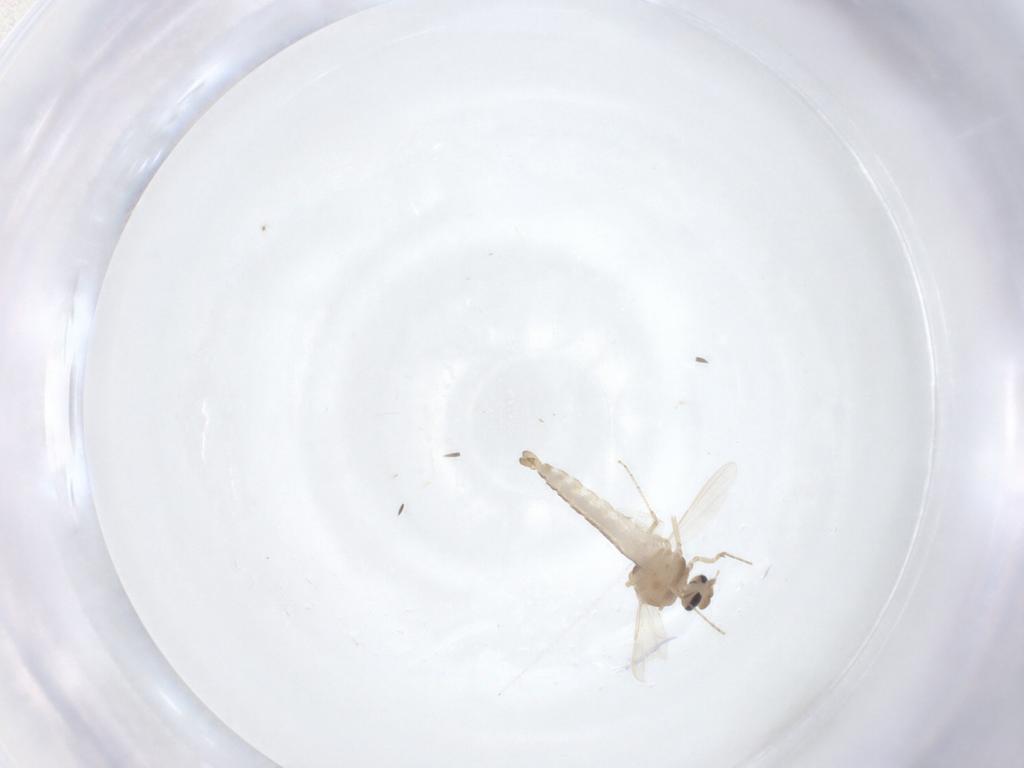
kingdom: Animalia
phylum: Arthropoda
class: Insecta
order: Diptera
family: Ceratopogonidae
